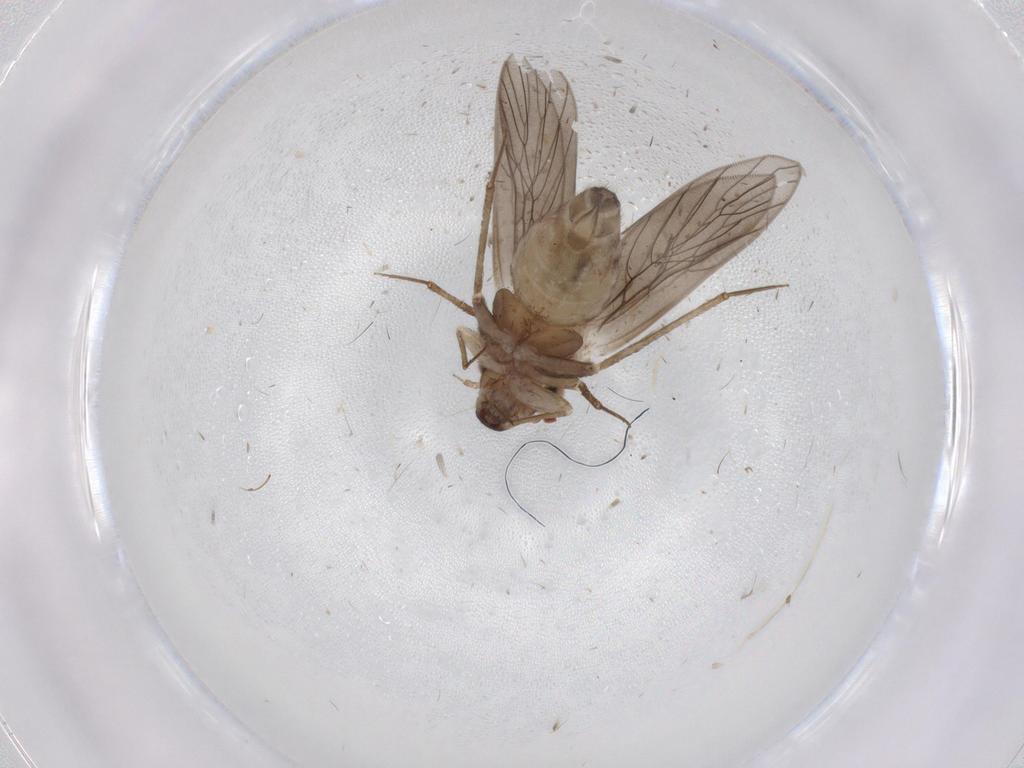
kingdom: Animalia
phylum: Arthropoda
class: Insecta
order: Psocodea
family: Lepidopsocidae
